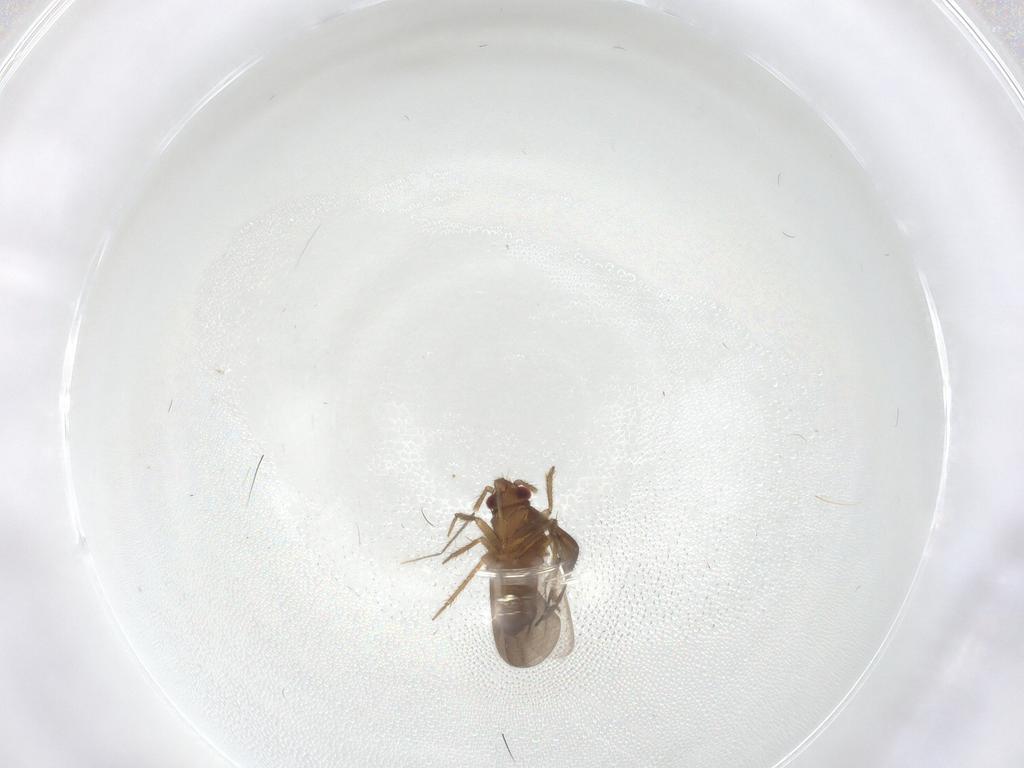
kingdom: Animalia
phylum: Arthropoda
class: Insecta
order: Hemiptera
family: Ceratocombidae
